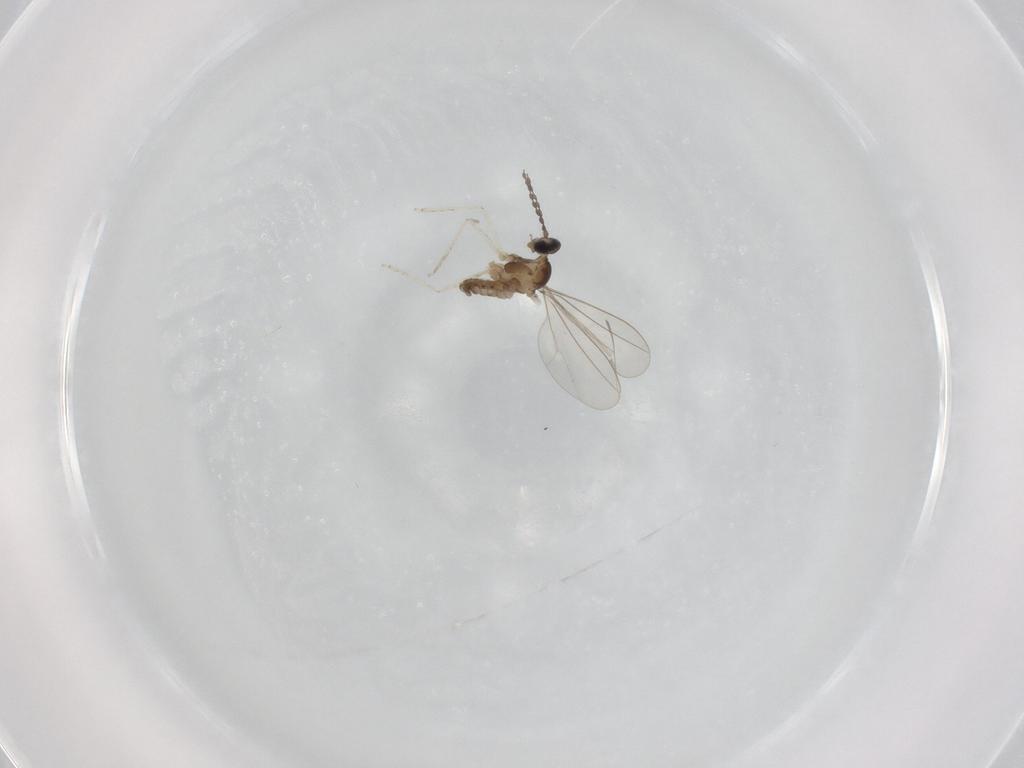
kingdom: Animalia
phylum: Arthropoda
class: Insecta
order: Diptera
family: Cecidomyiidae
